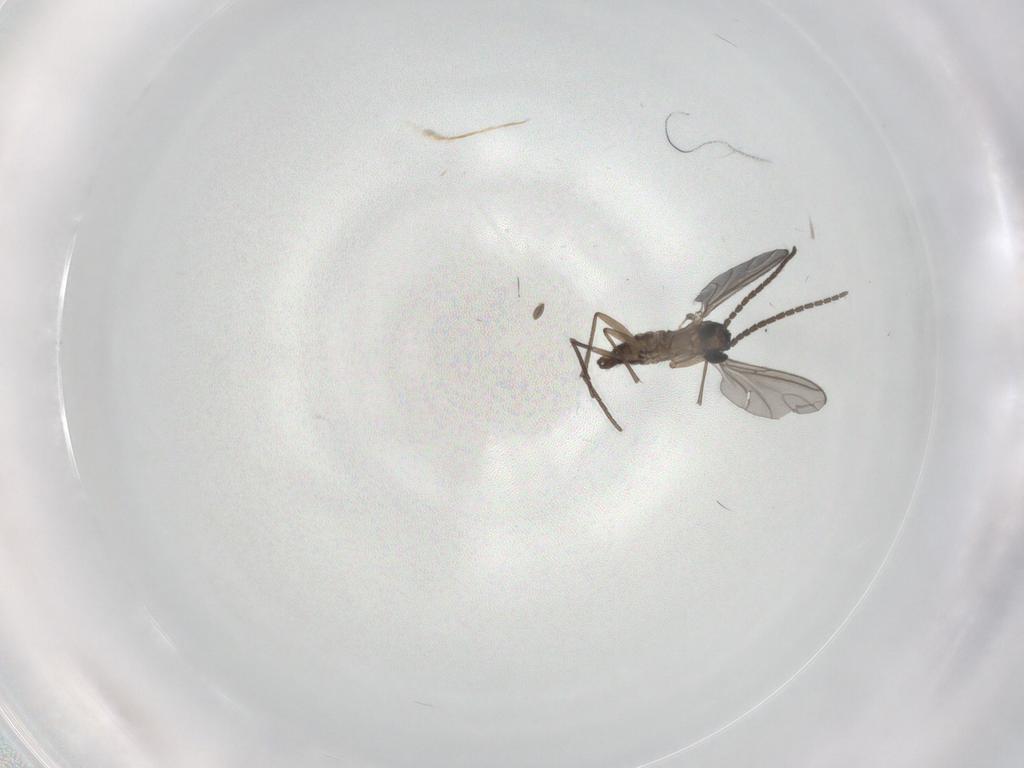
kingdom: Animalia
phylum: Arthropoda
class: Insecta
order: Diptera
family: Sciaridae
